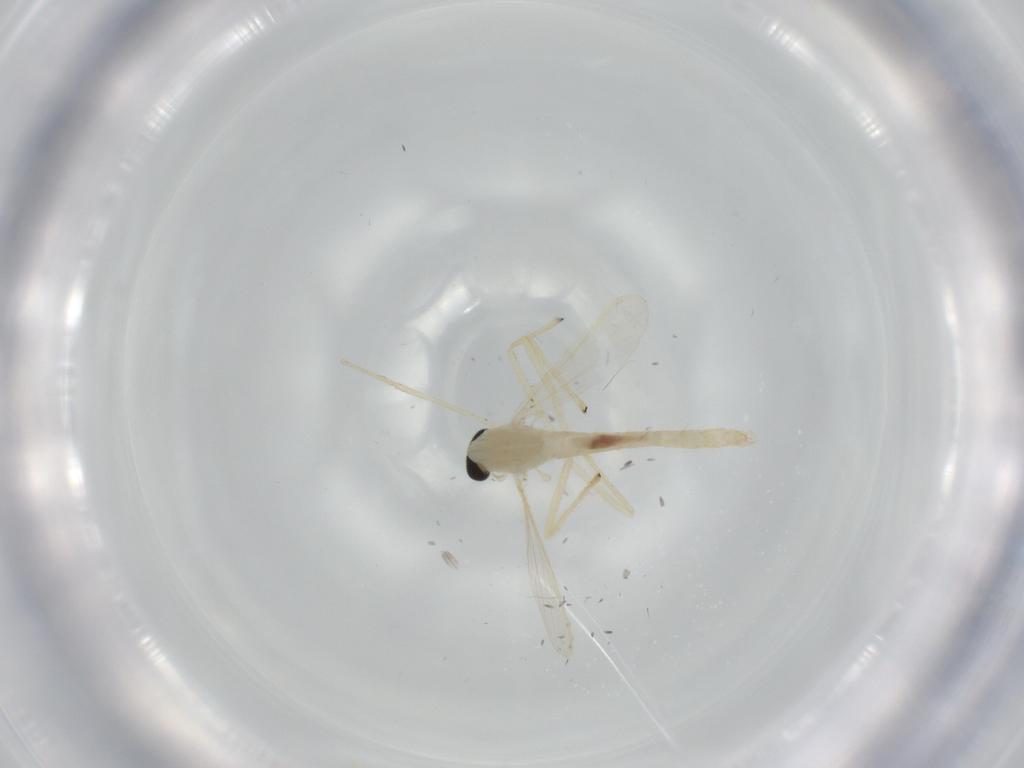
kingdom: Animalia
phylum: Arthropoda
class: Insecta
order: Diptera
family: Chironomidae
